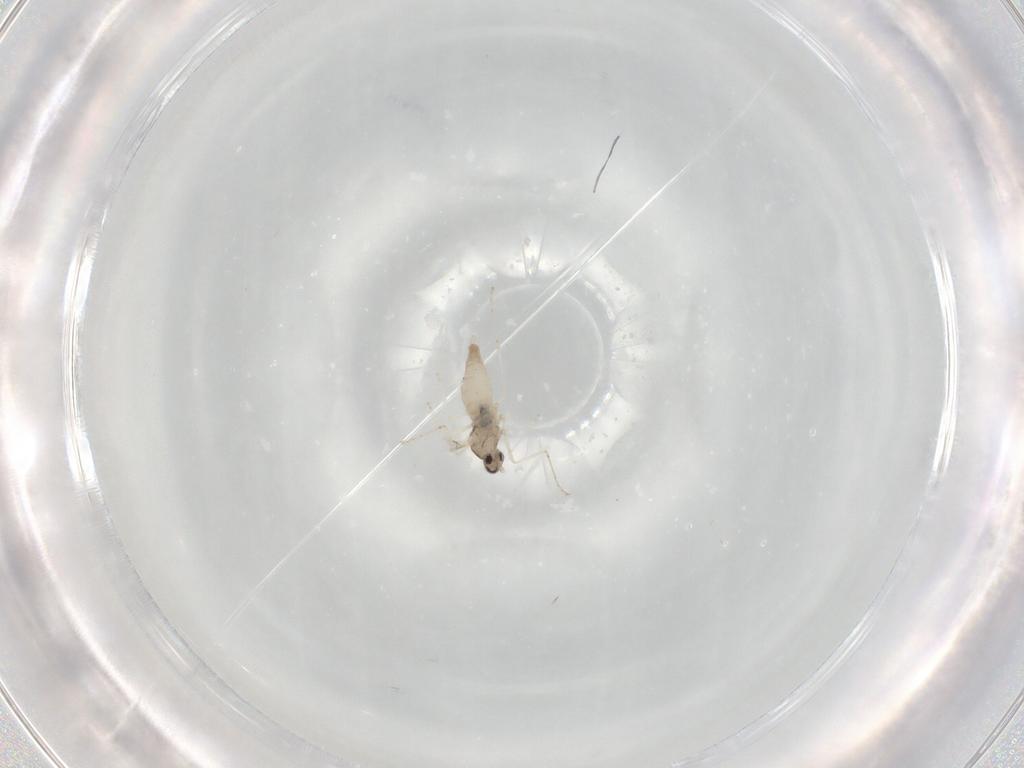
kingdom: Animalia
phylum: Arthropoda
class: Insecta
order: Diptera
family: Cecidomyiidae
